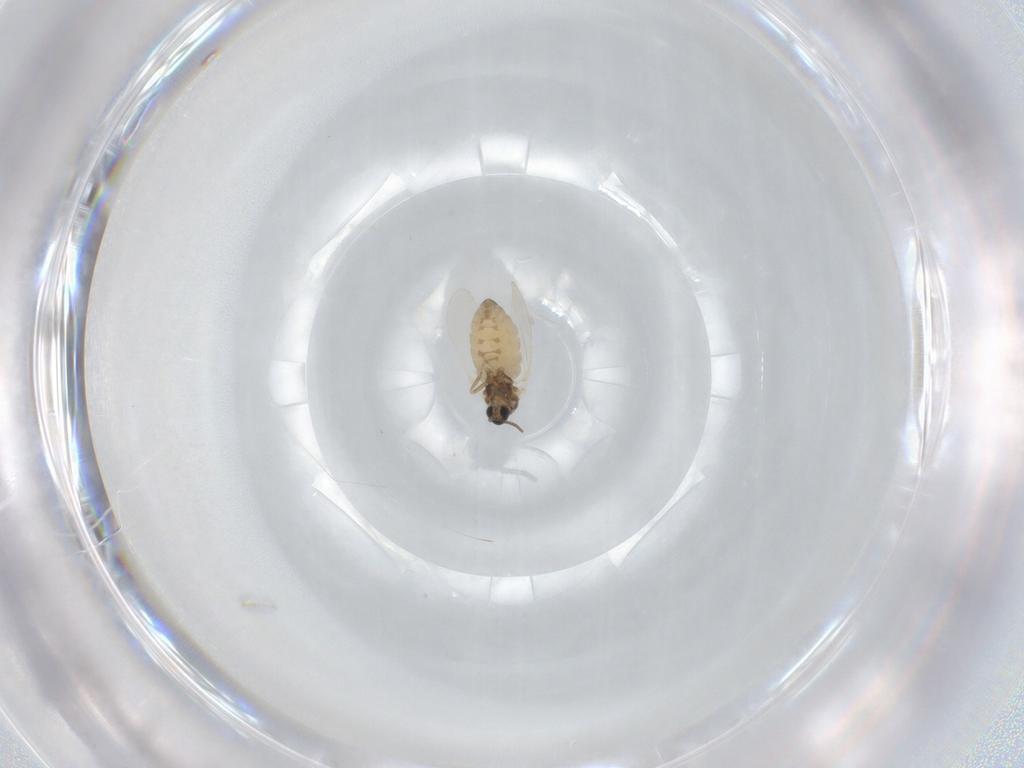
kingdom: Animalia
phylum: Arthropoda
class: Insecta
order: Diptera
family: Cecidomyiidae
